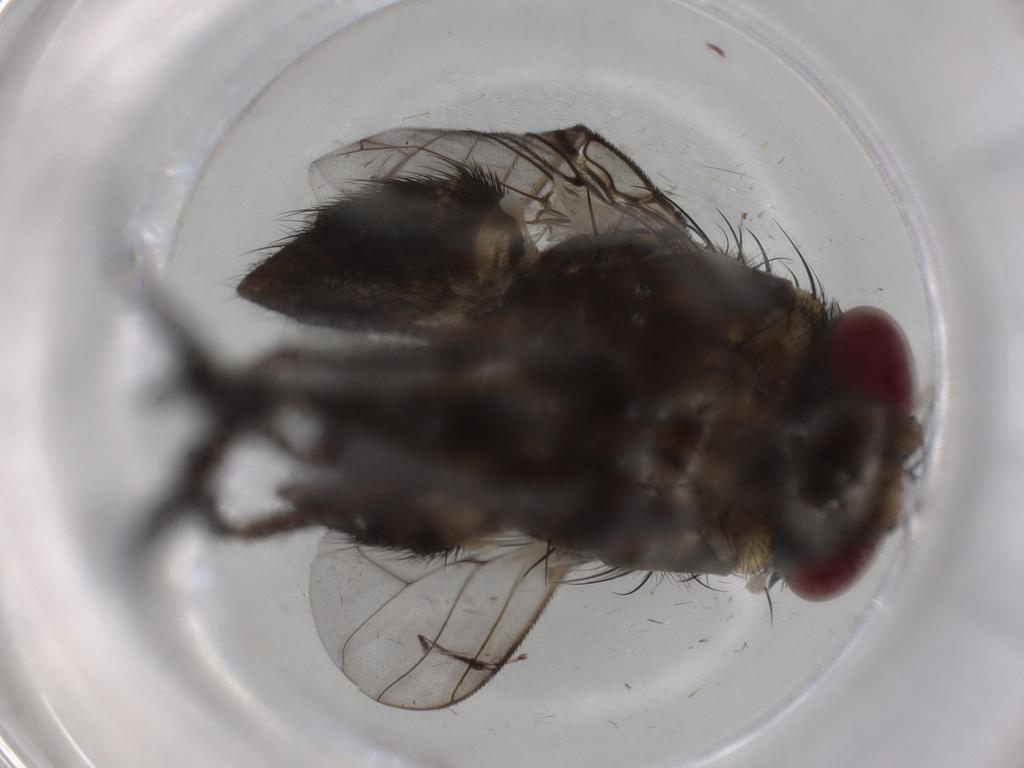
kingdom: Animalia
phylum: Arthropoda
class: Insecta
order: Diptera
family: Muscidae
